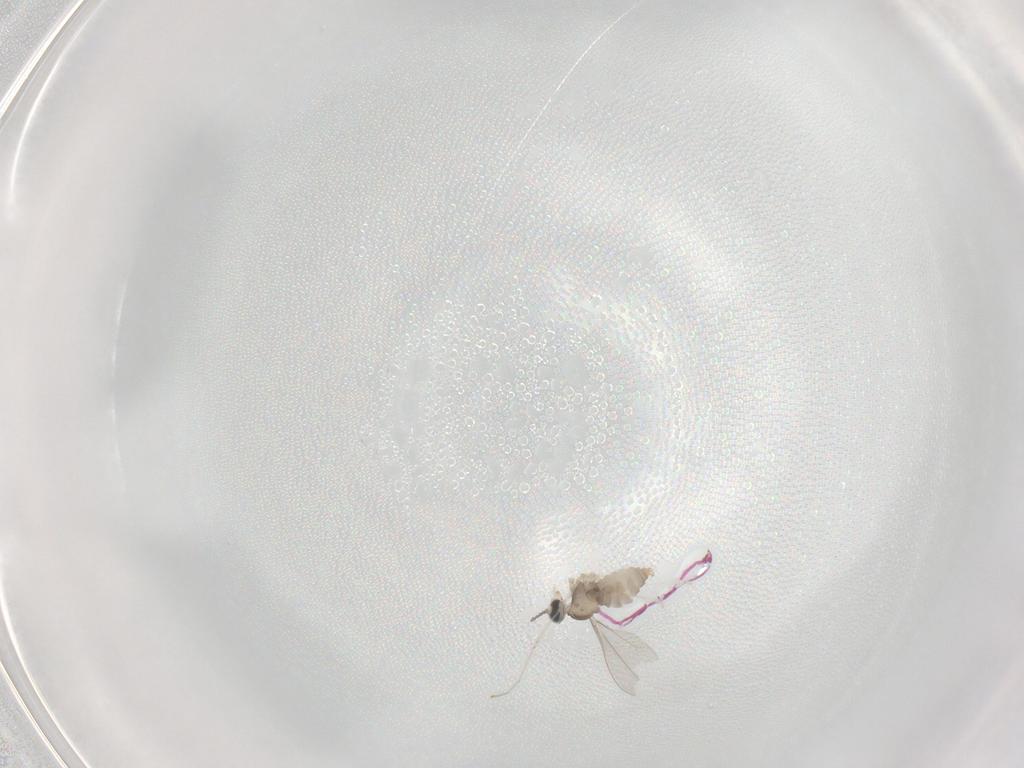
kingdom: Animalia
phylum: Arthropoda
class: Insecta
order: Diptera
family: Cecidomyiidae
